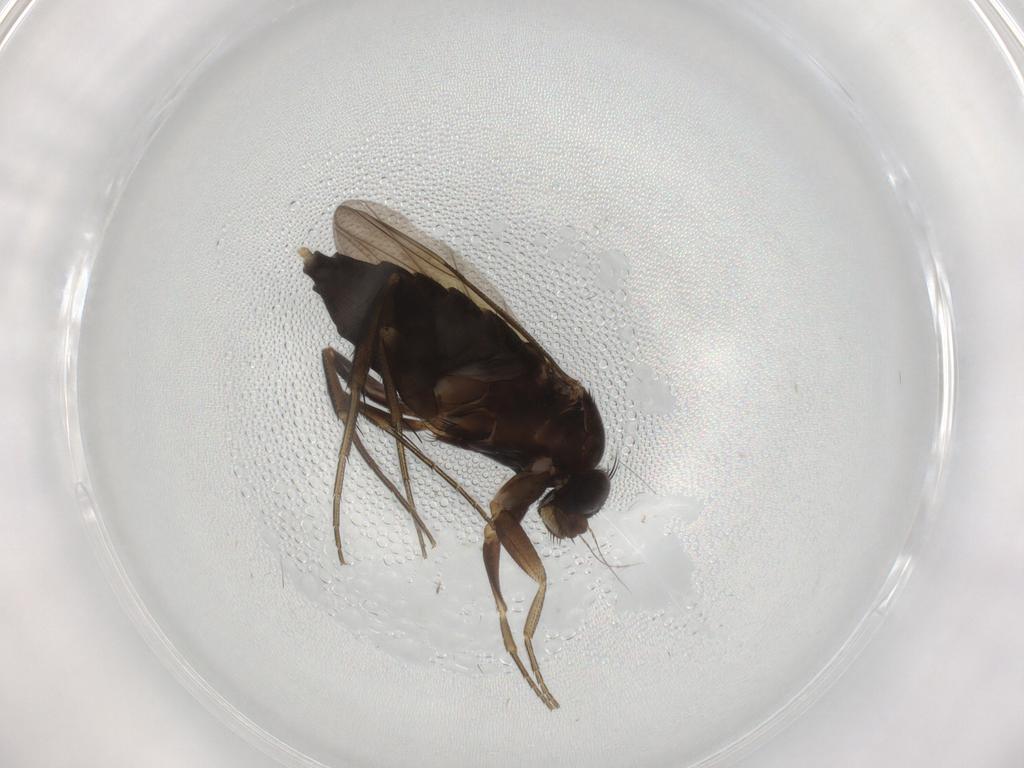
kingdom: Animalia
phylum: Arthropoda
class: Insecta
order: Diptera
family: Phoridae
